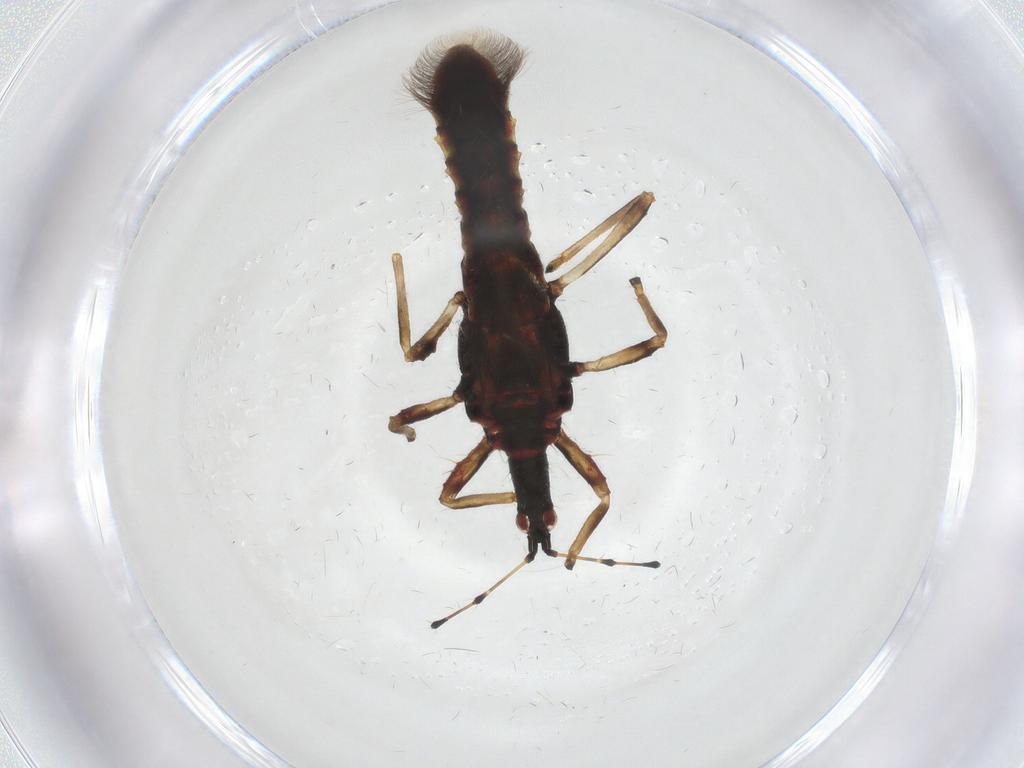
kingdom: Animalia
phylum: Arthropoda
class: Insecta
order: Diptera
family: Chironomidae
